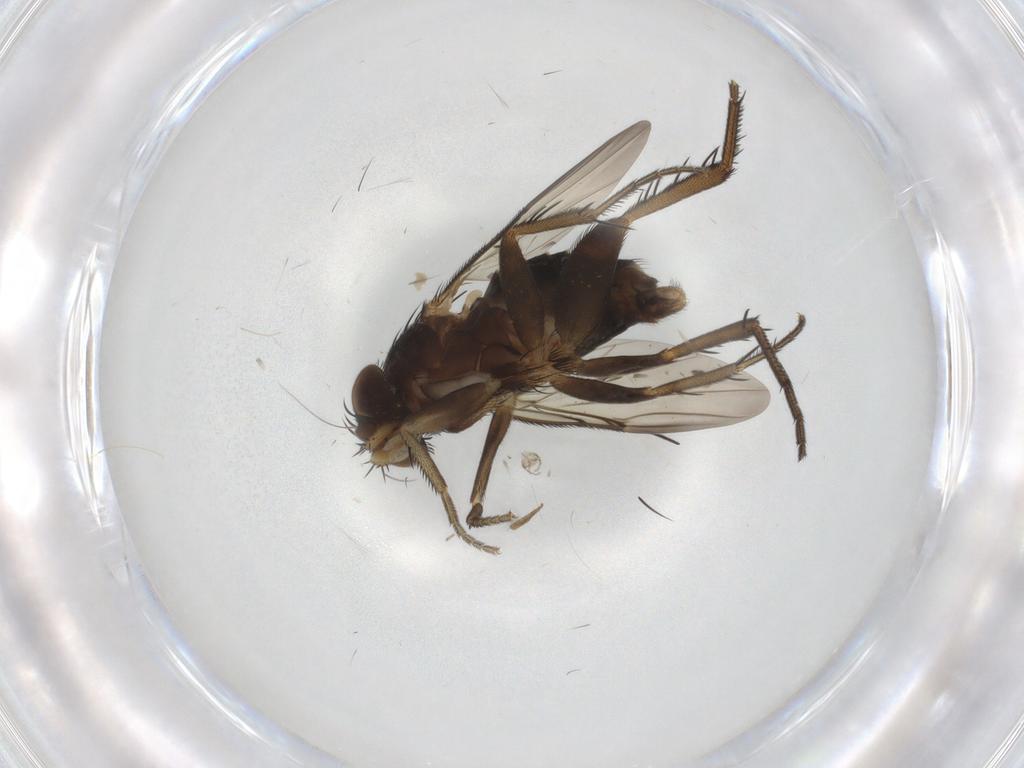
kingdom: Animalia
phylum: Arthropoda
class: Insecta
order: Diptera
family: Phoridae
